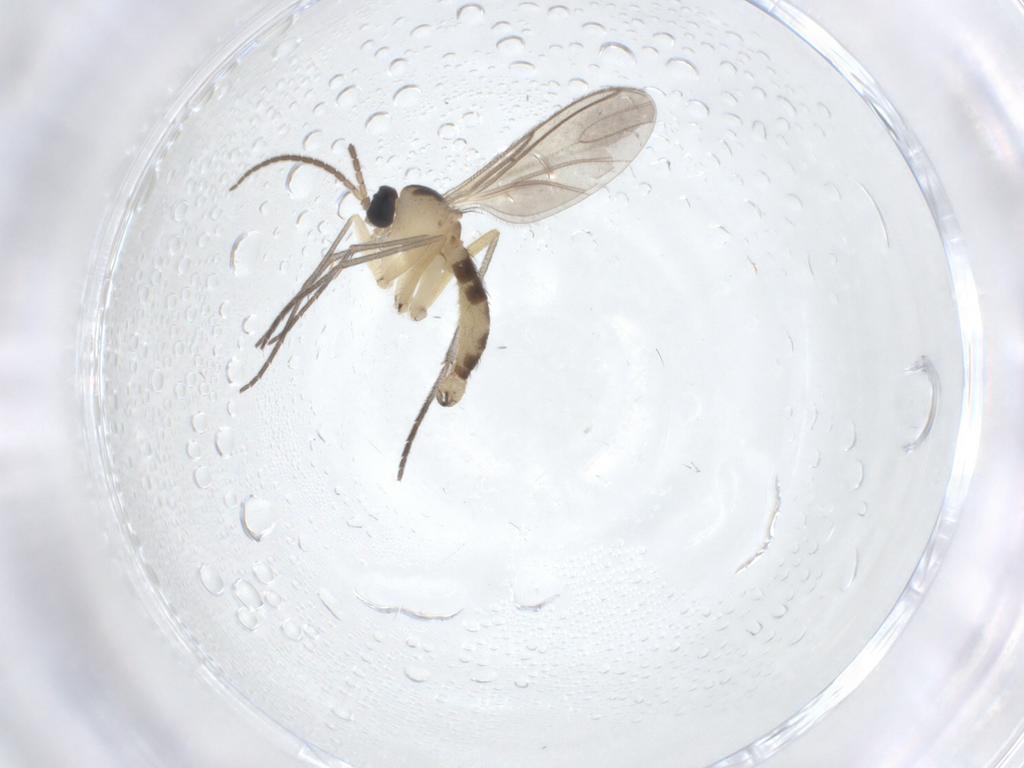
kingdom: Animalia
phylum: Arthropoda
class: Insecta
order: Diptera
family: Sciaridae
